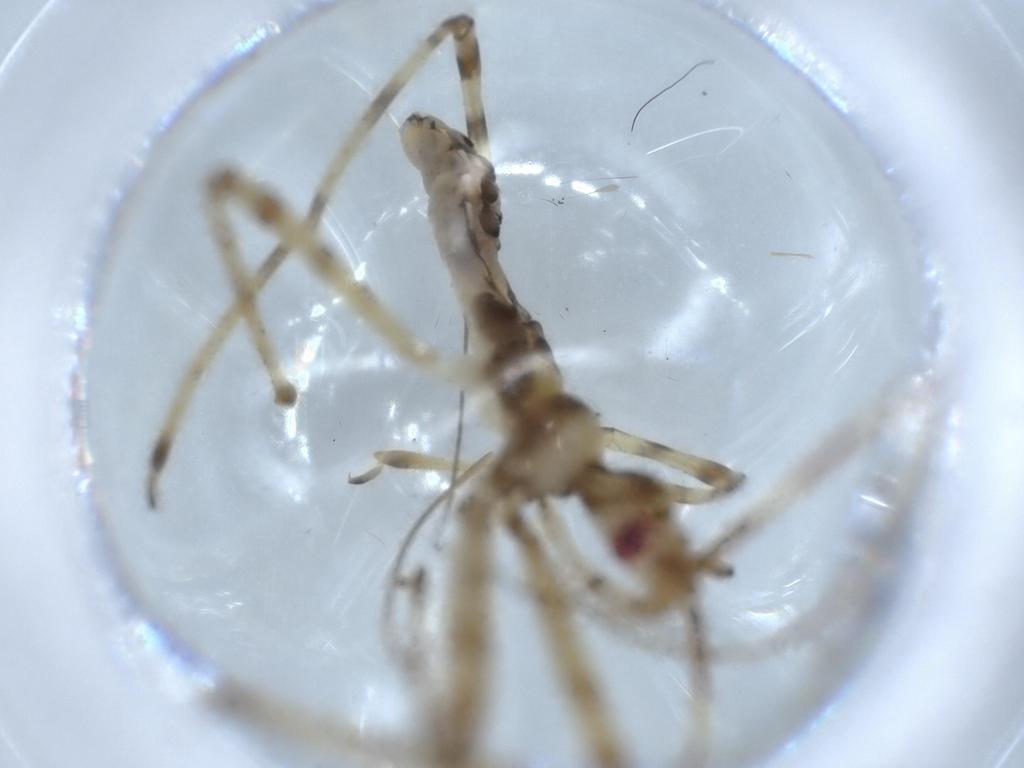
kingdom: Animalia
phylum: Arthropoda
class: Insecta
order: Hemiptera
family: Reduviidae
